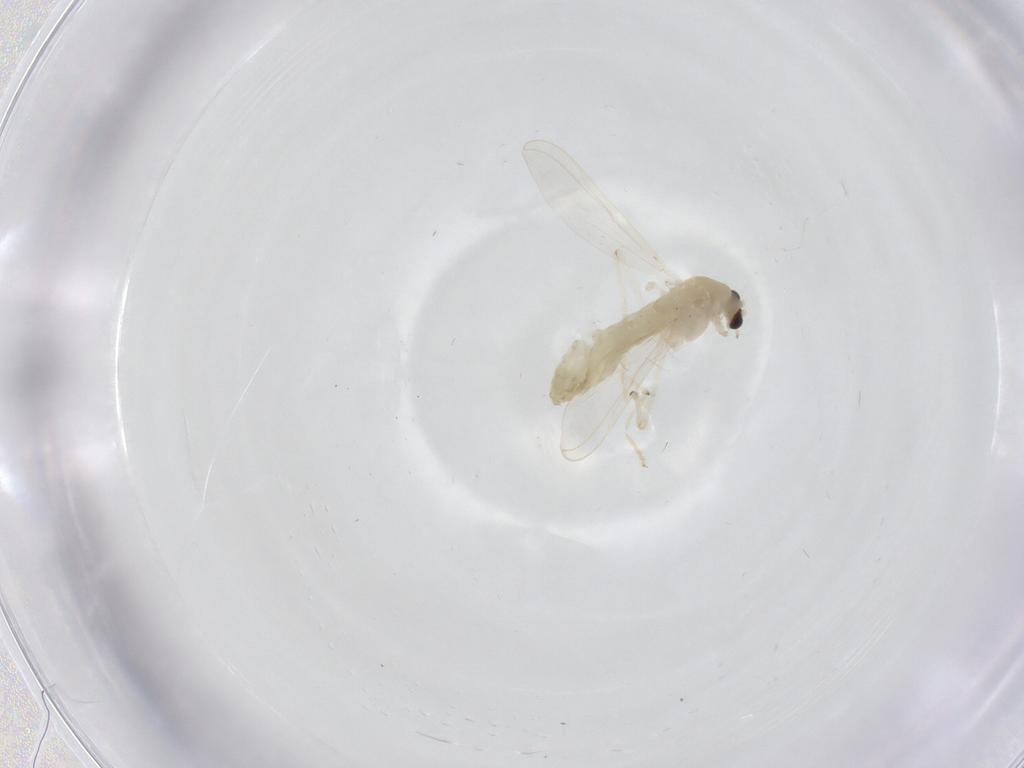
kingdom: Animalia
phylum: Arthropoda
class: Insecta
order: Diptera
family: Chironomidae
